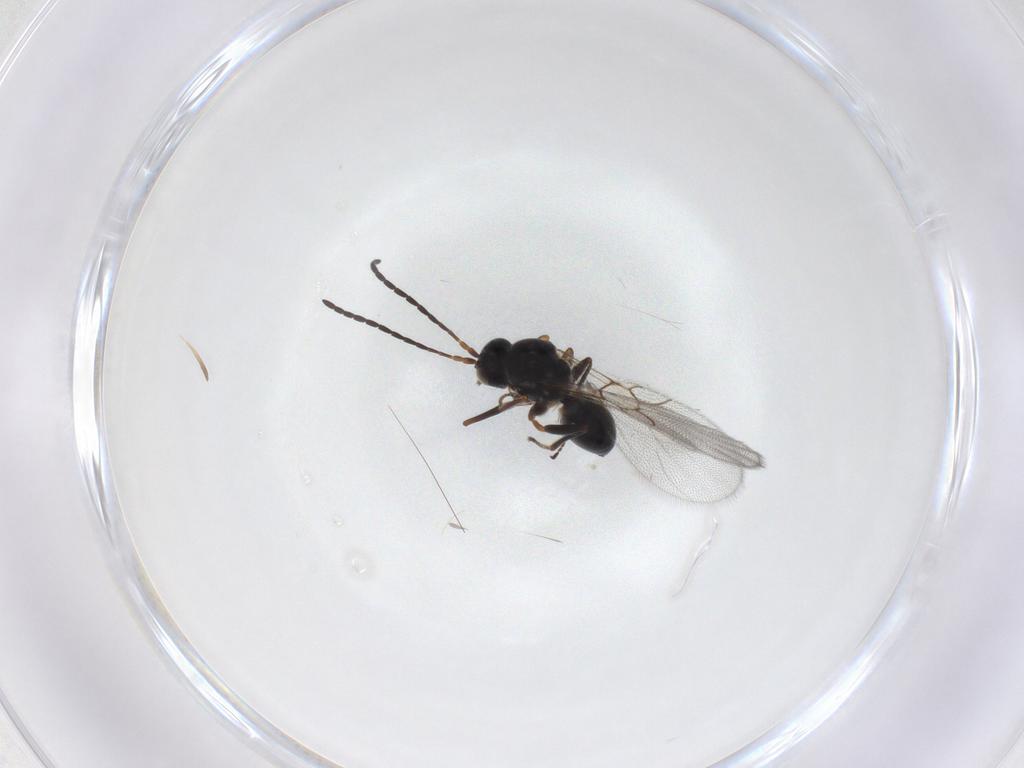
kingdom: Animalia
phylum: Arthropoda
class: Insecta
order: Hymenoptera
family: Figitidae
